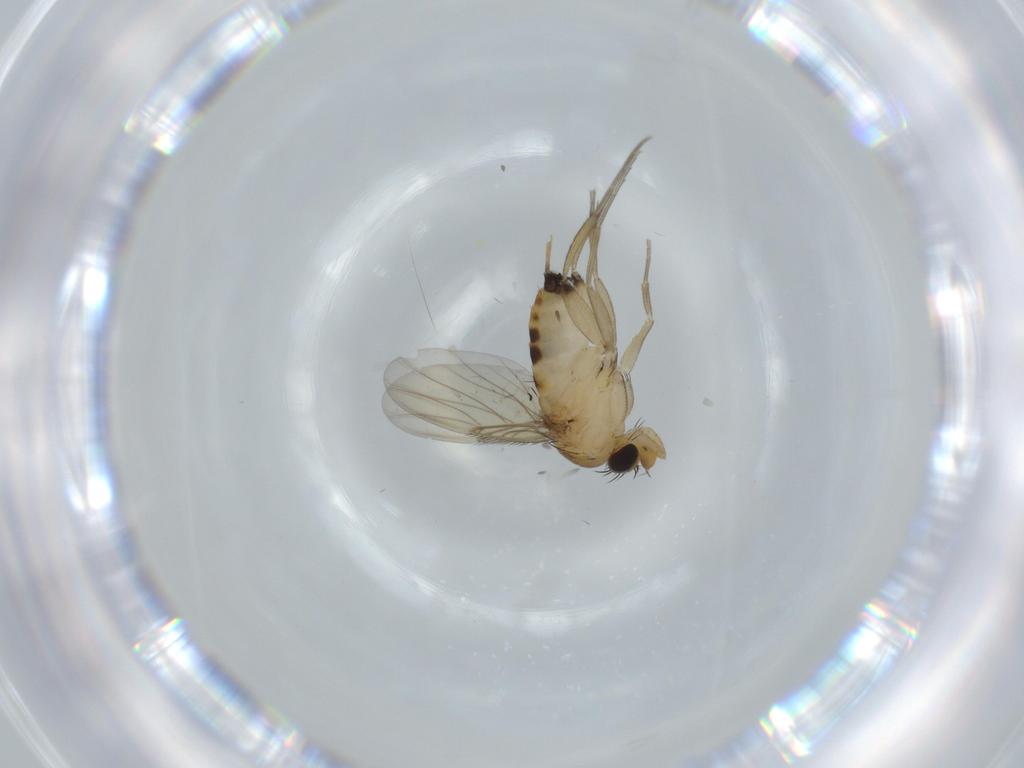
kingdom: Animalia
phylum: Arthropoda
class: Insecta
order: Diptera
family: Phoridae
